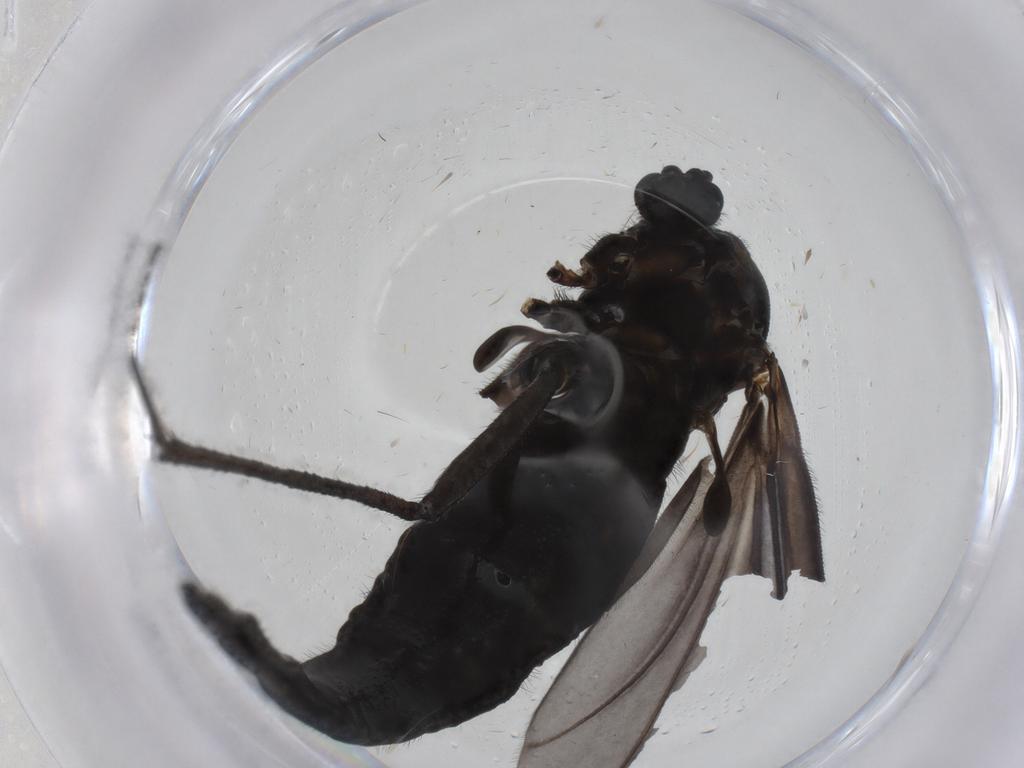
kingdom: Animalia
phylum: Arthropoda
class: Insecta
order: Diptera
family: Sciaridae
